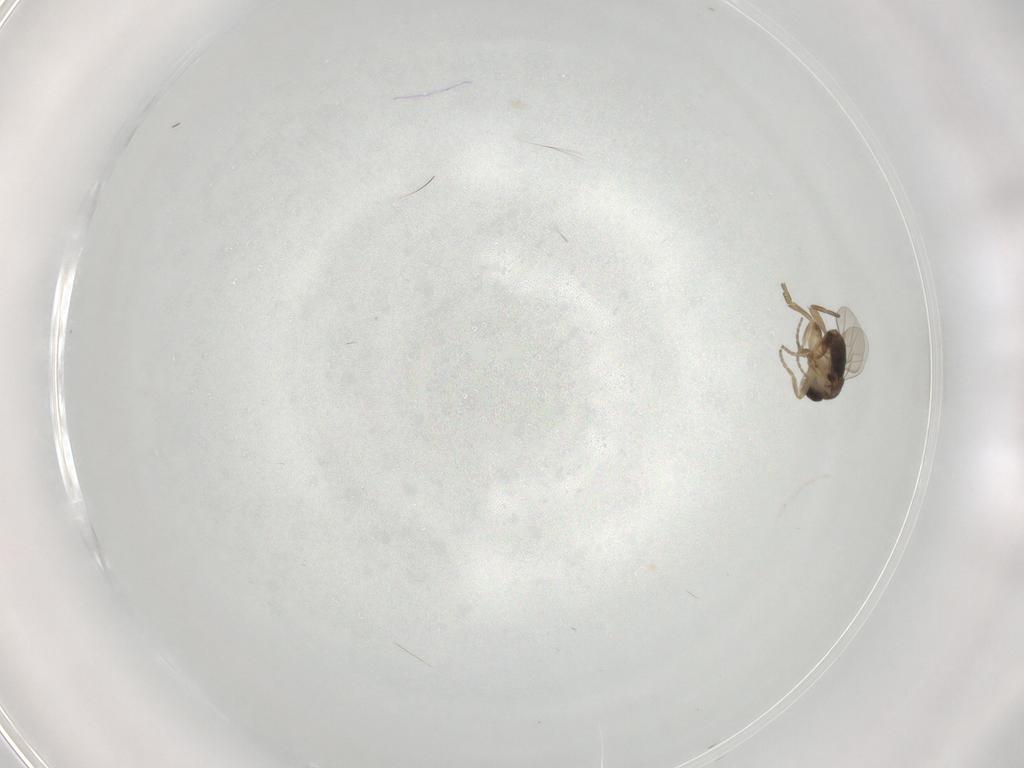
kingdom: Animalia
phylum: Arthropoda
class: Insecta
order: Diptera
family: Phoridae
